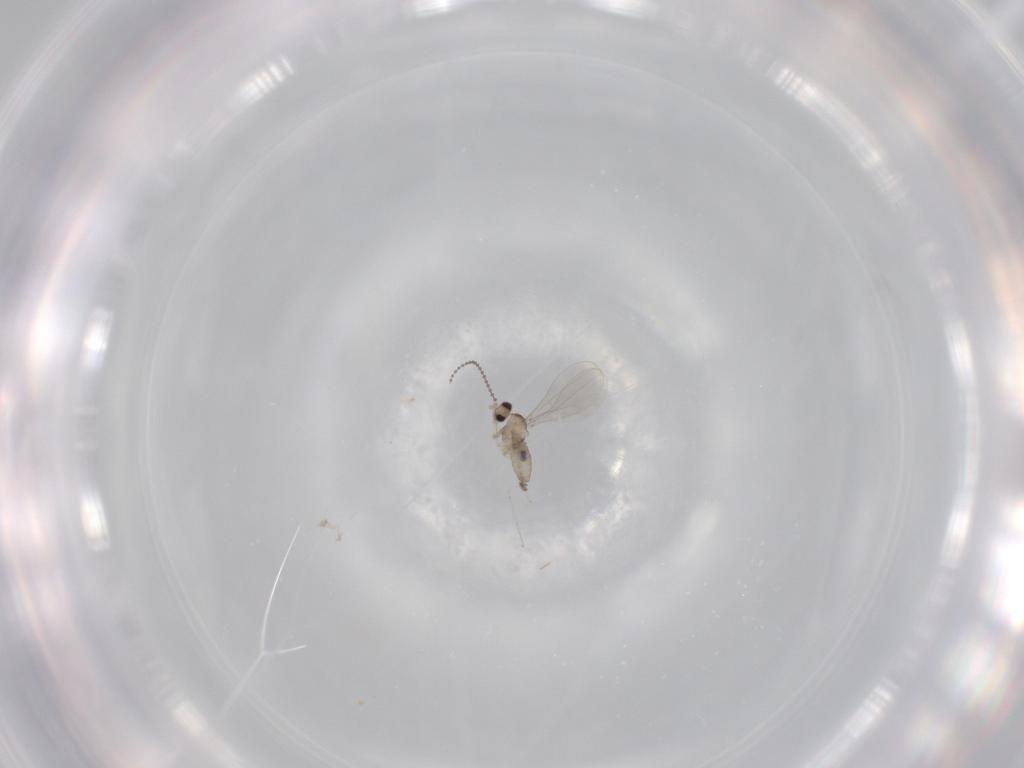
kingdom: Animalia
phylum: Arthropoda
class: Insecta
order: Diptera
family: Cecidomyiidae
